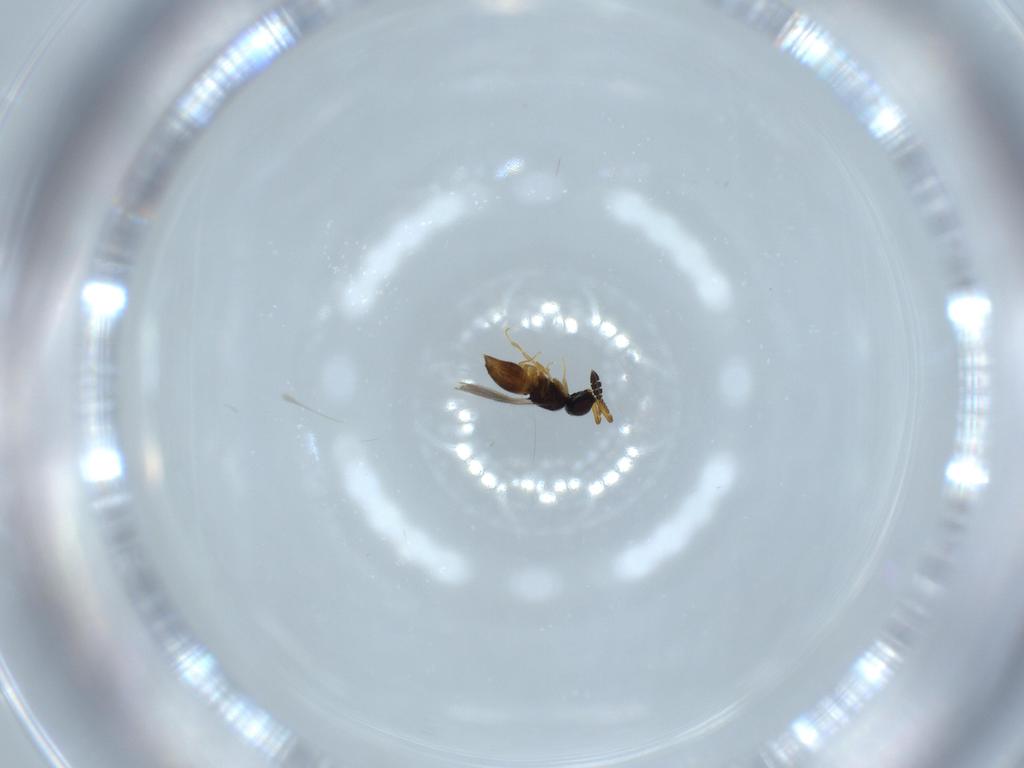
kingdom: Animalia
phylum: Arthropoda
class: Insecta
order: Hymenoptera
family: Ceraphronidae
